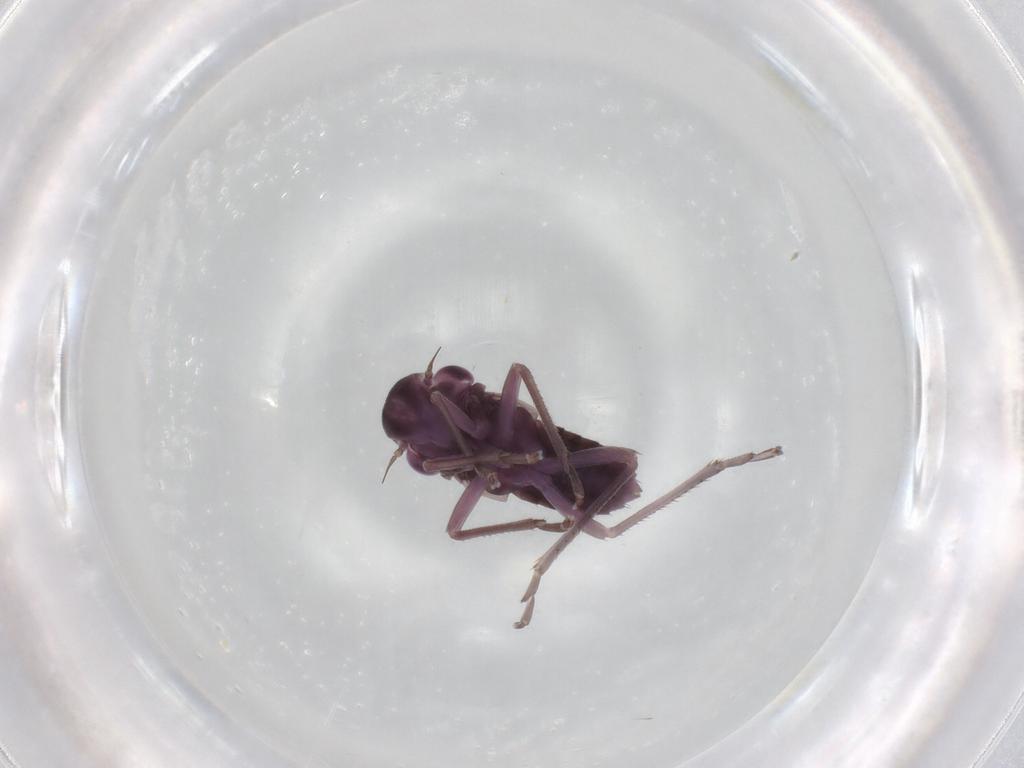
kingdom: Animalia
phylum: Arthropoda
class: Insecta
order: Hemiptera
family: Cicadellidae
